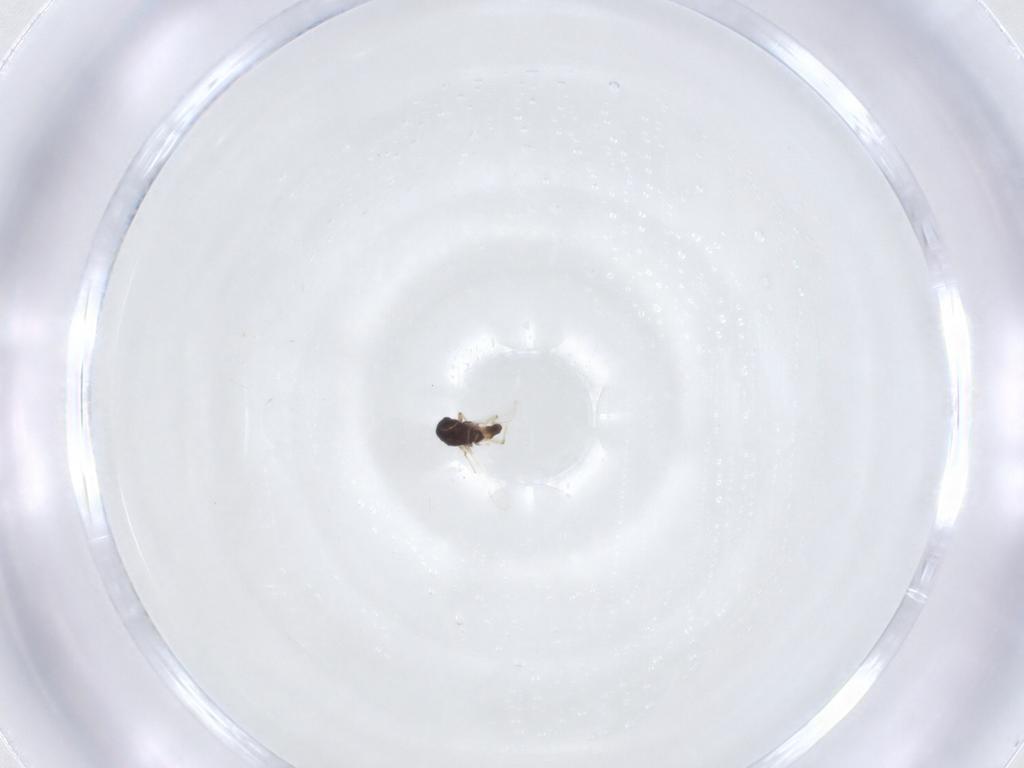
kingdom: Animalia
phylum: Arthropoda
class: Insecta
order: Diptera
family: Chironomidae
